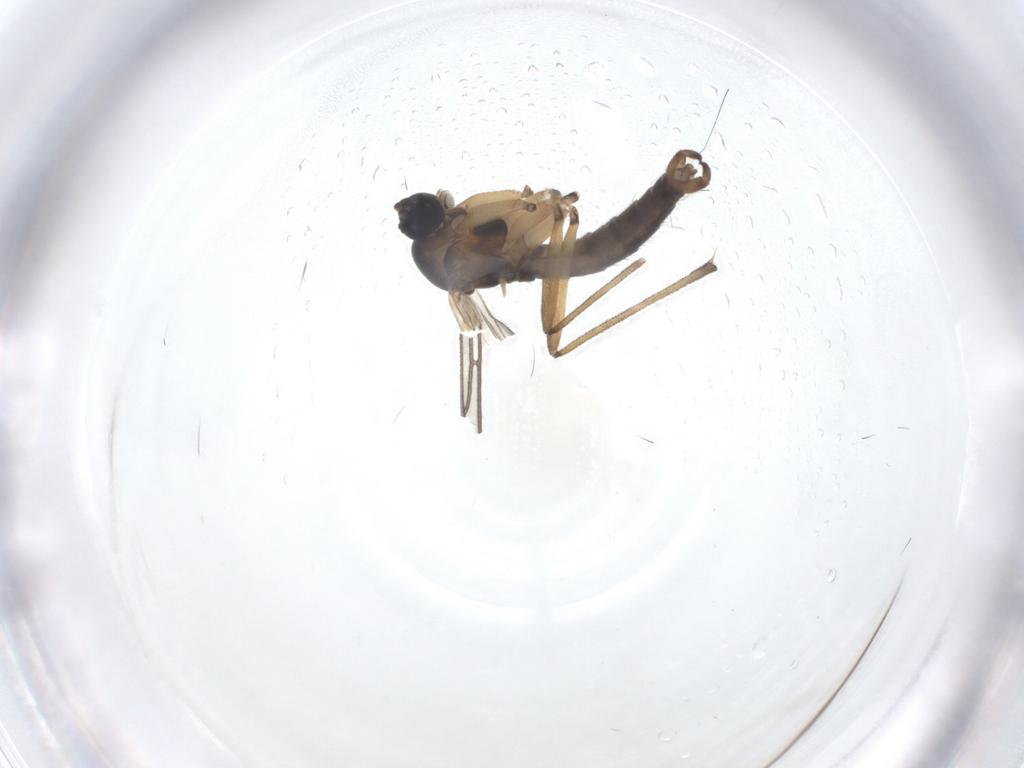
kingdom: Animalia
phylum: Arthropoda
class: Insecta
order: Diptera
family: Sciaridae
